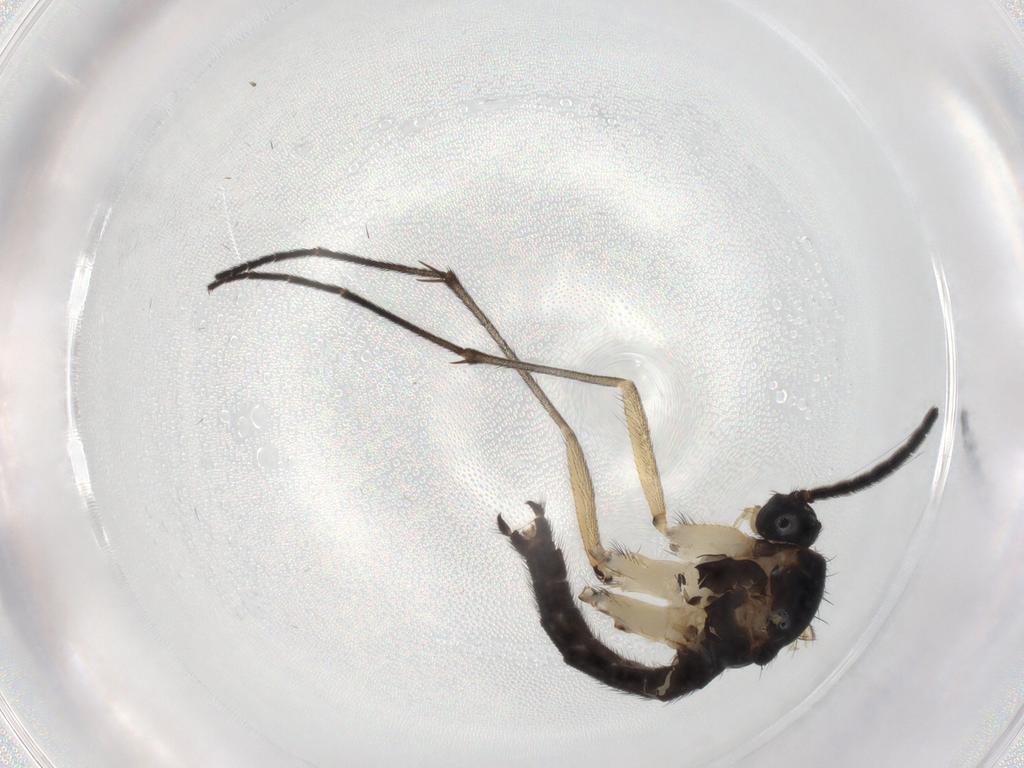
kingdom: Animalia
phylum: Arthropoda
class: Insecta
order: Diptera
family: Sciaridae
